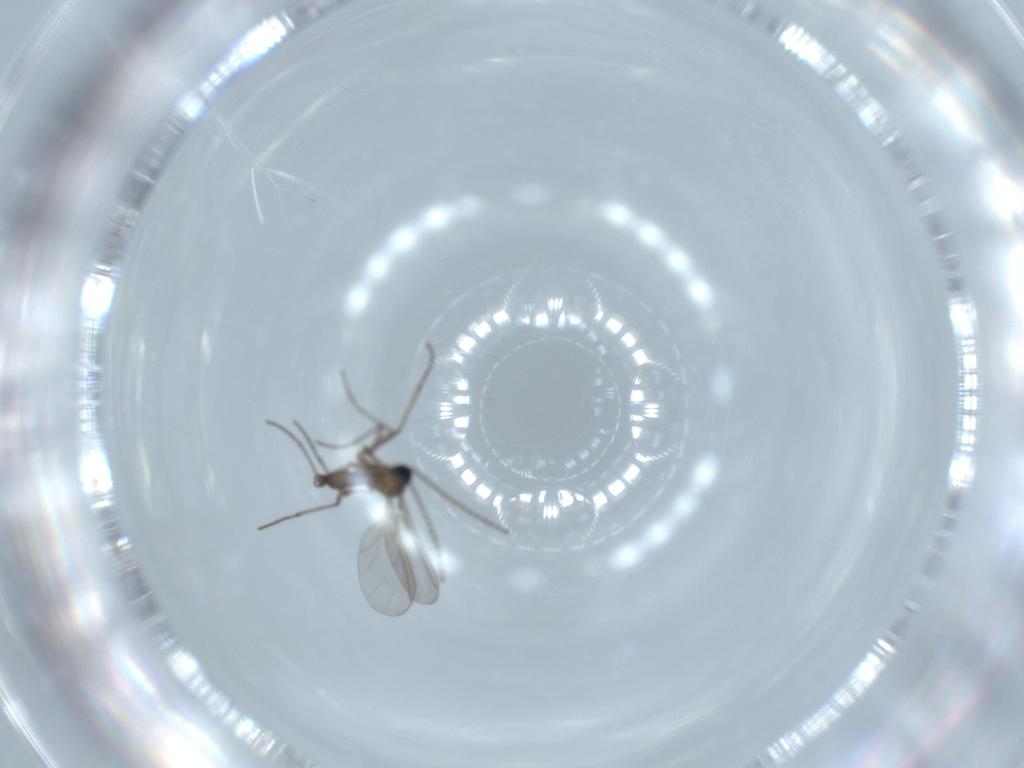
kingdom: Animalia
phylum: Arthropoda
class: Insecta
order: Diptera
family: Sciaridae
